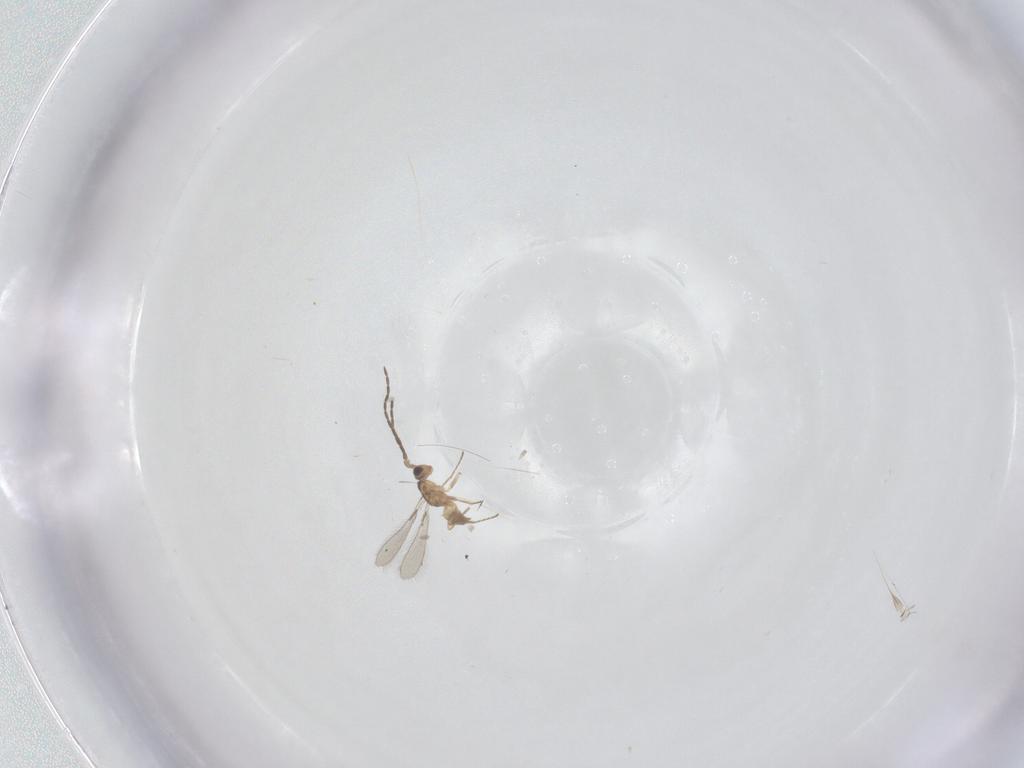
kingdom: Animalia
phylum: Arthropoda
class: Insecta
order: Hymenoptera
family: Mymaridae
